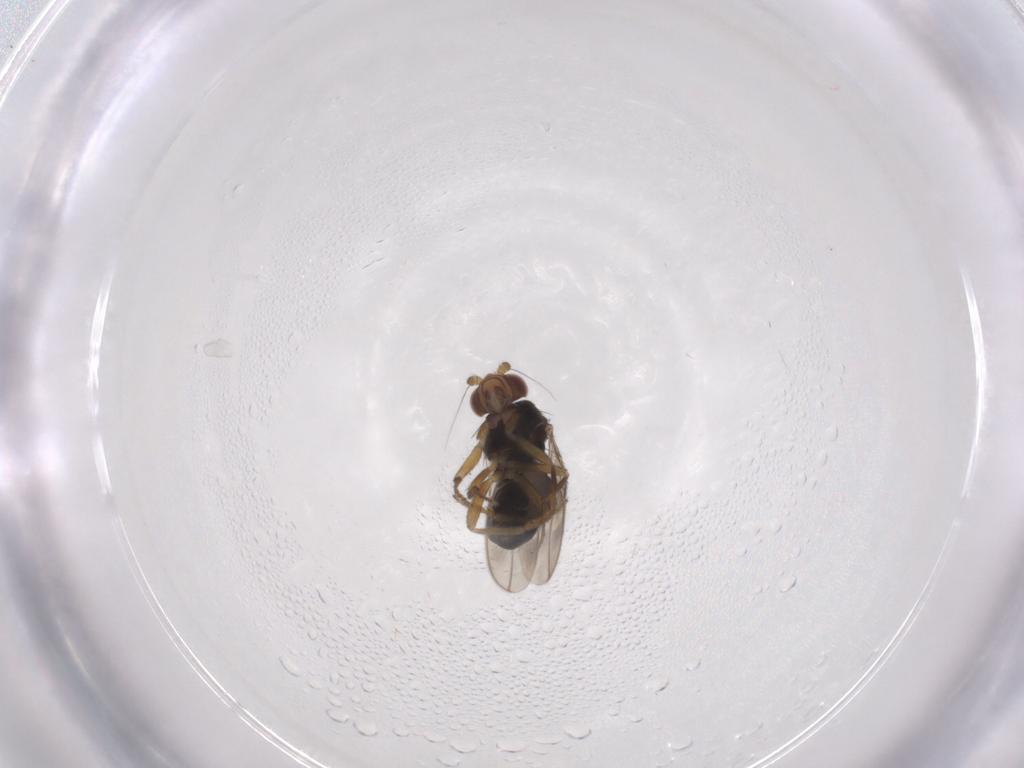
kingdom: Animalia
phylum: Arthropoda
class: Insecta
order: Diptera
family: Sphaeroceridae
